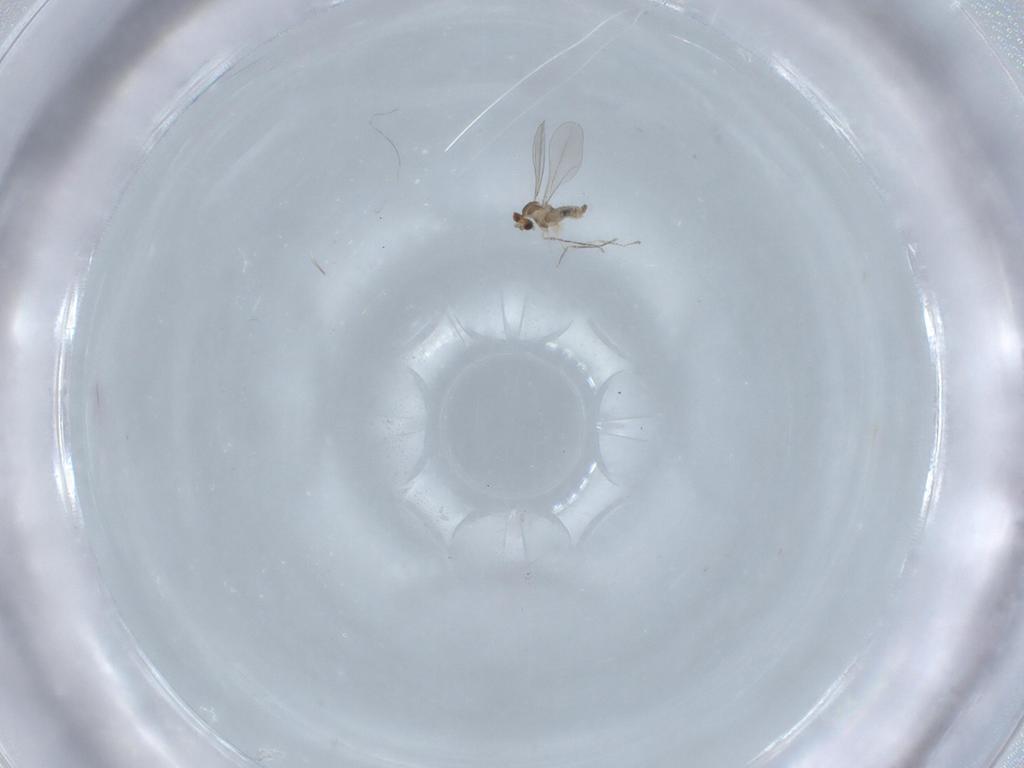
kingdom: Animalia
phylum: Arthropoda
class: Insecta
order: Diptera
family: Cecidomyiidae
